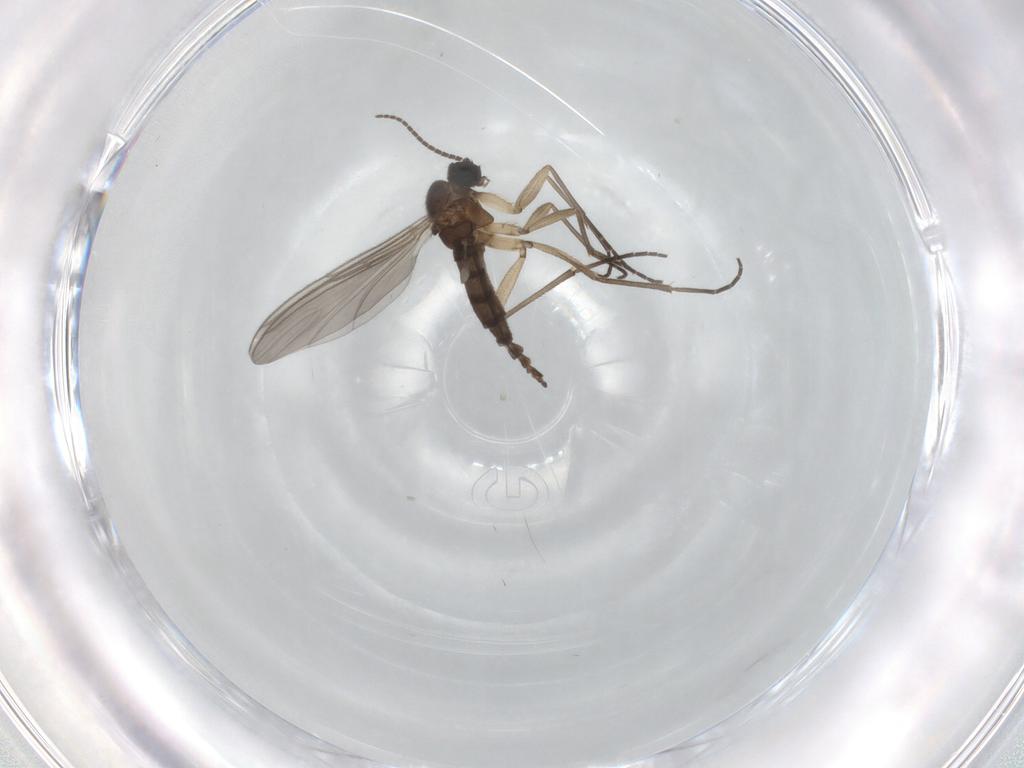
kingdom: Animalia
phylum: Arthropoda
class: Insecta
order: Diptera
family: Sciaridae
